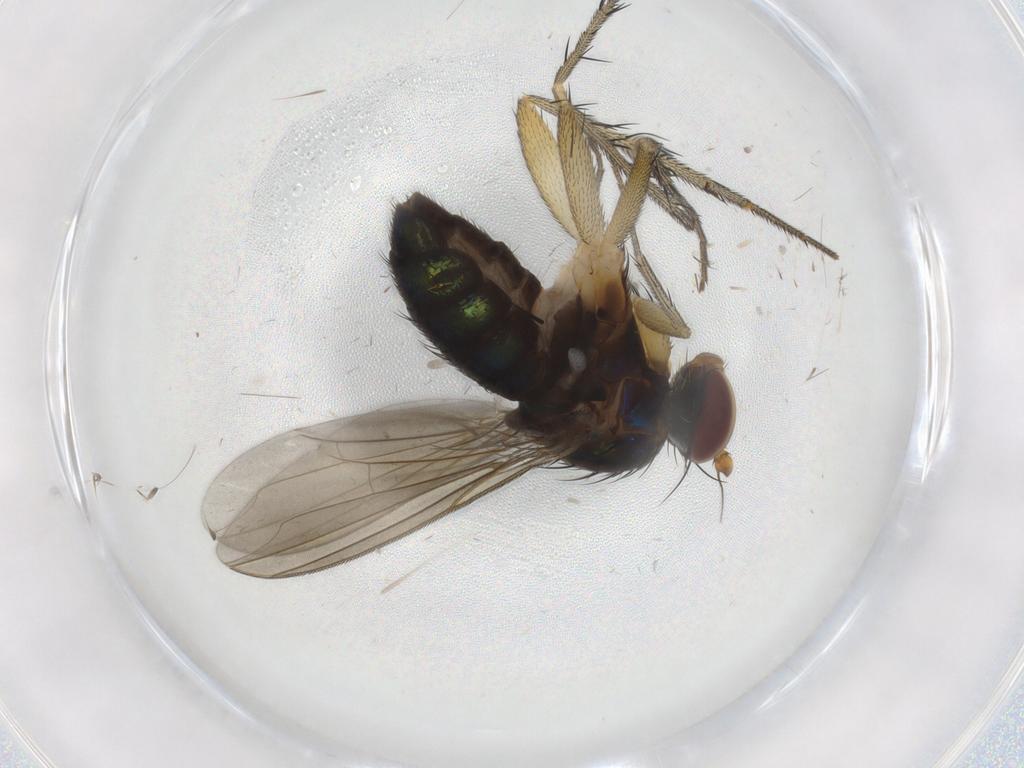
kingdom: Animalia
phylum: Arthropoda
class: Insecta
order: Diptera
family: Dolichopodidae
